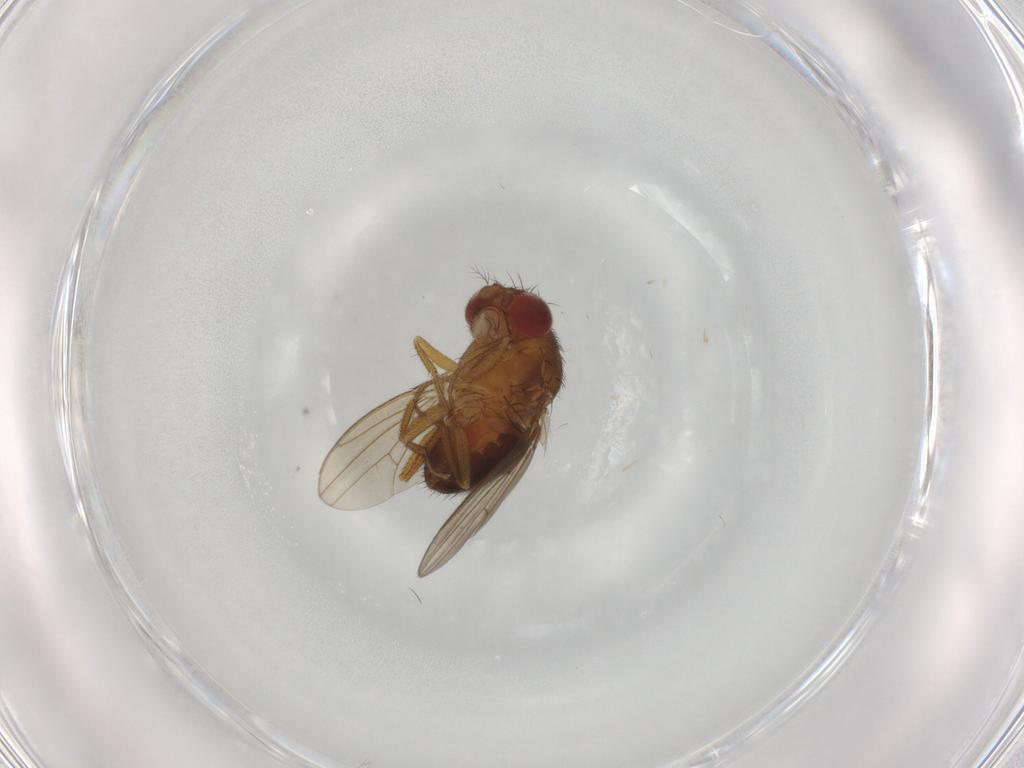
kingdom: Animalia
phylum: Arthropoda
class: Insecta
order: Diptera
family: Drosophilidae
